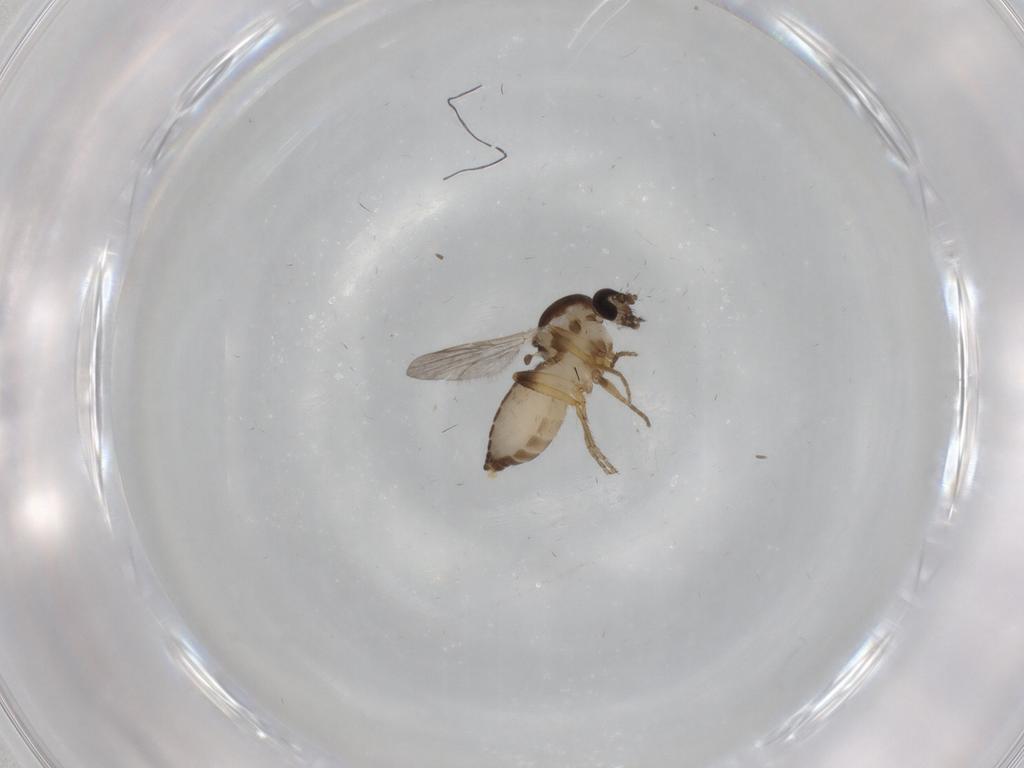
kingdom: Animalia
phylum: Arthropoda
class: Insecta
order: Diptera
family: Ceratopogonidae
